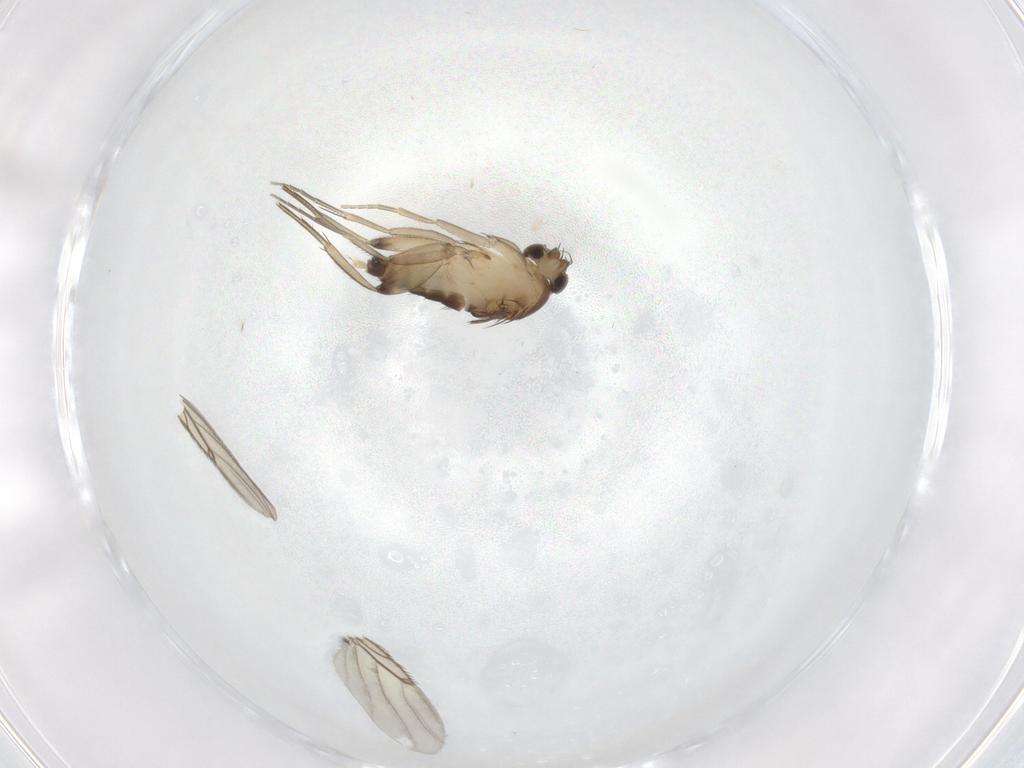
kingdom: Animalia
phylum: Arthropoda
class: Insecta
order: Diptera
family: Phoridae
